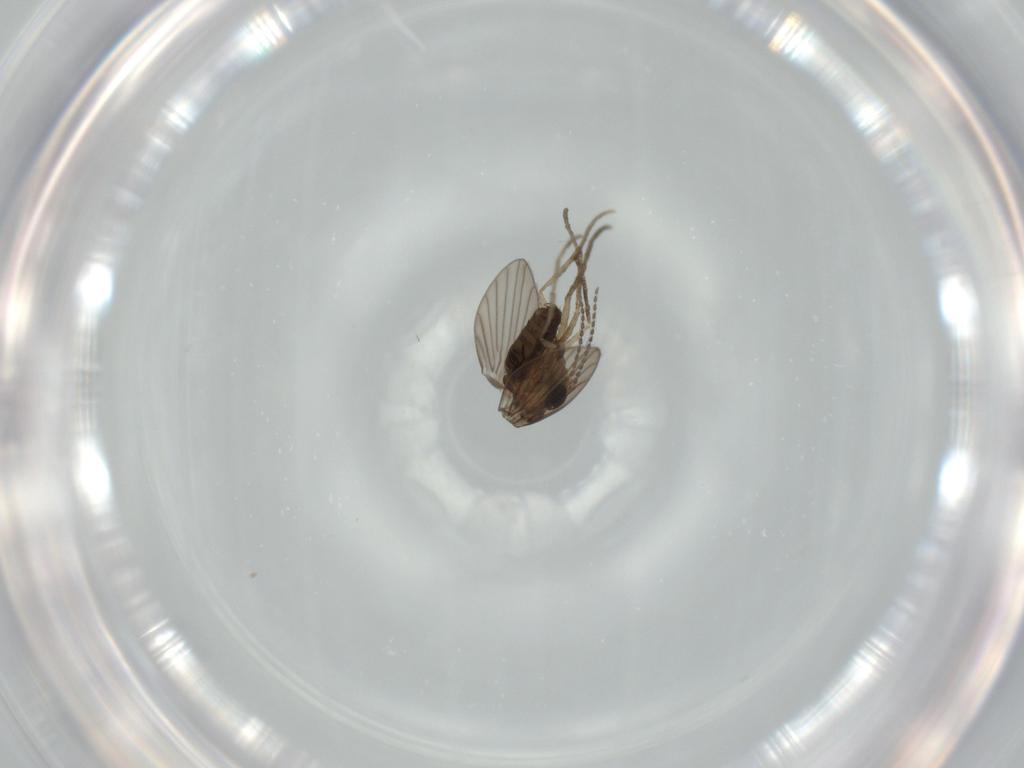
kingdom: Animalia
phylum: Arthropoda
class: Insecta
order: Diptera
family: Psychodidae
